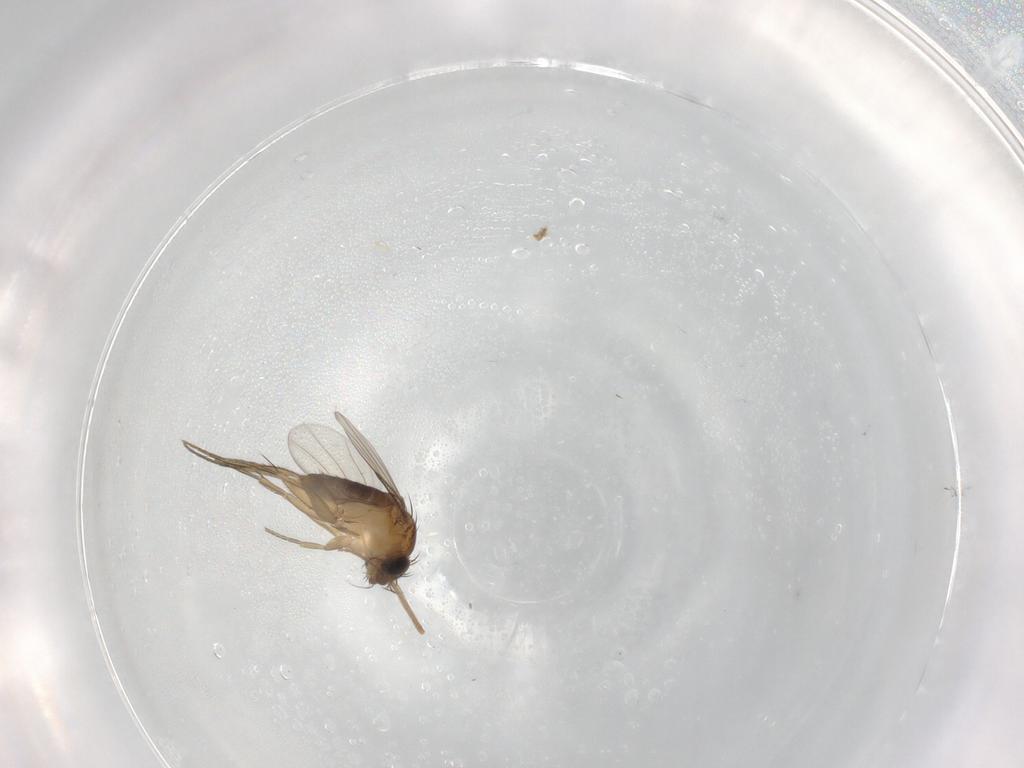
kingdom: Animalia
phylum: Arthropoda
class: Insecta
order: Diptera
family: Phoridae
